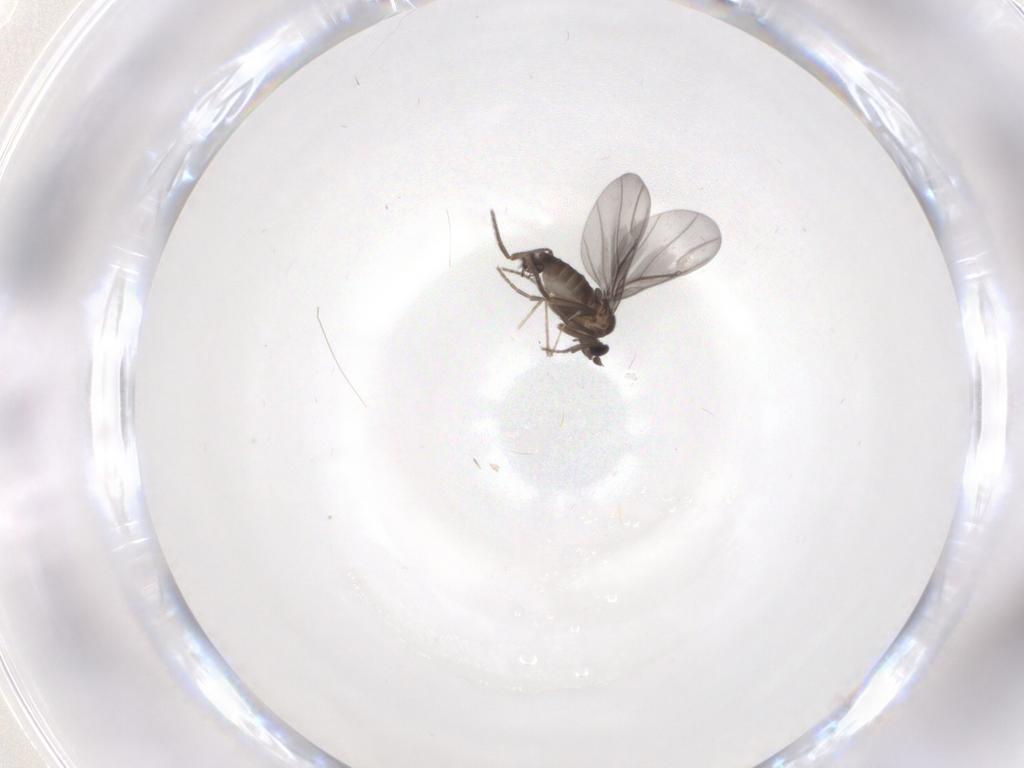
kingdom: Animalia
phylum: Arthropoda
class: Insecta
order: Diptera
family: Phoridae
